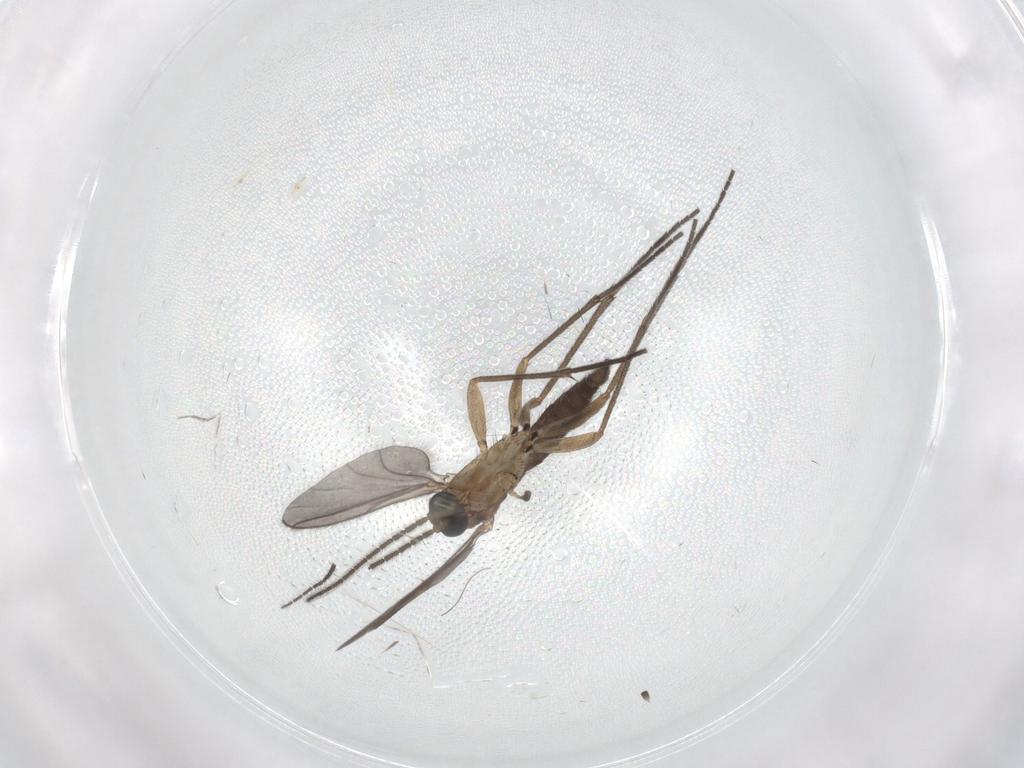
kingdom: Animalia
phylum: Arthropoda
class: Insecta
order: Diptera
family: Sciaridae
